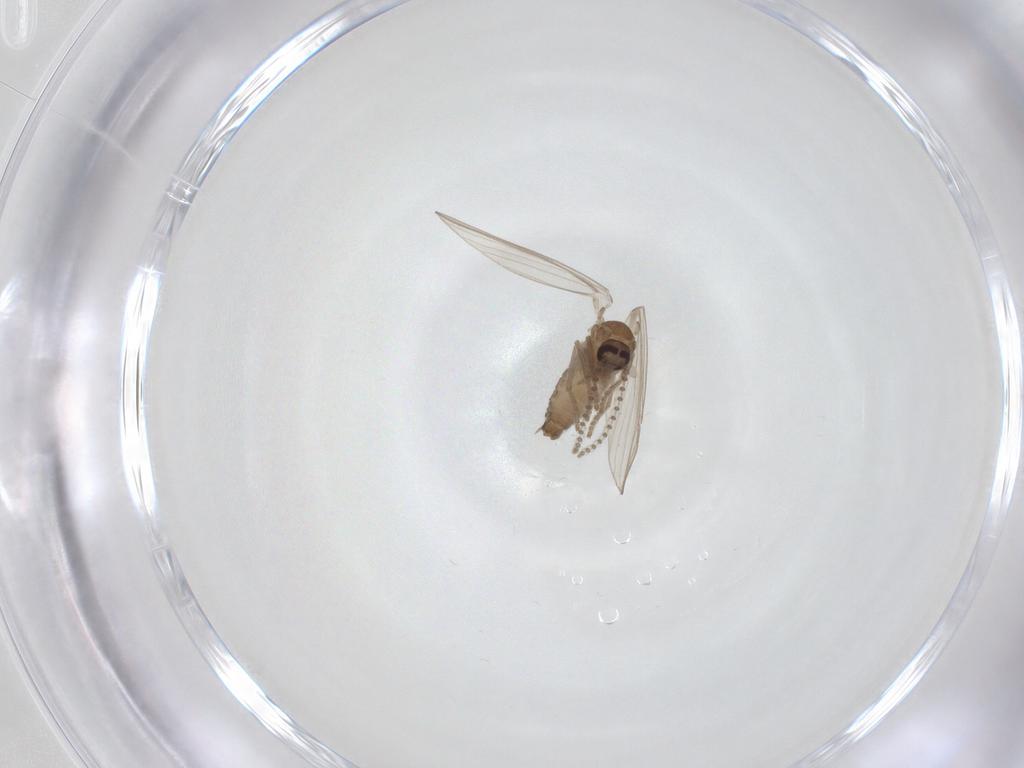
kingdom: Animalia
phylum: Arthropoda
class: Insecta
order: Diptera
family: Psychodidae
